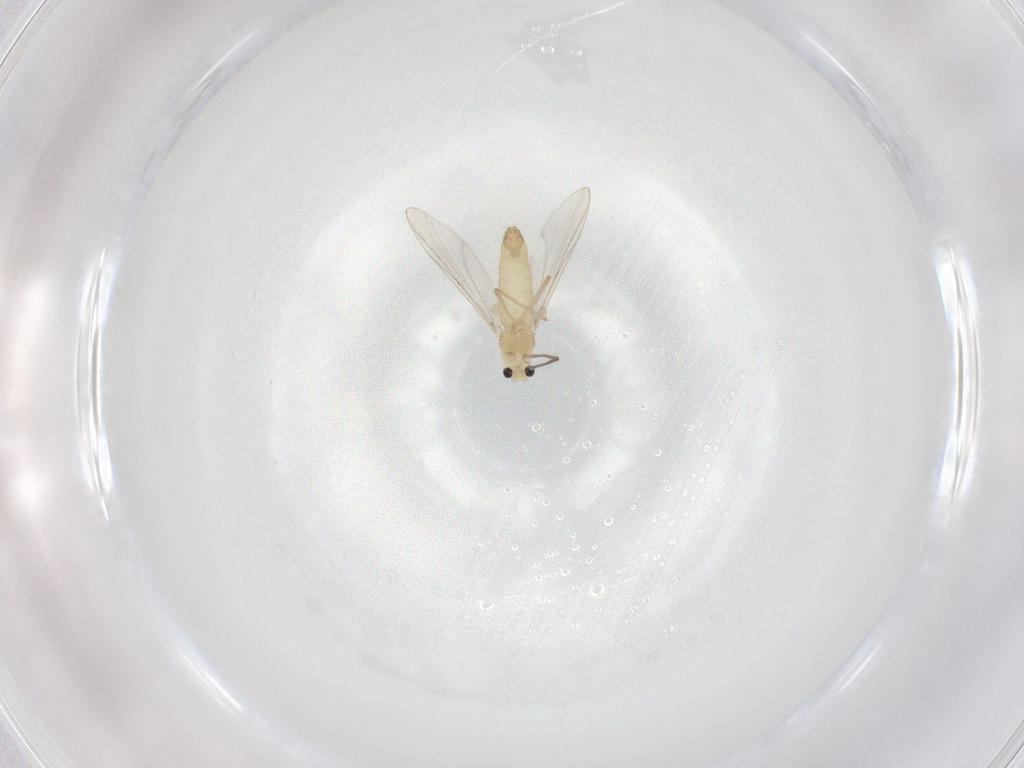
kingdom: Animalia
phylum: Arthropoda
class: Insecta
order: Diptera
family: Chironomidae
